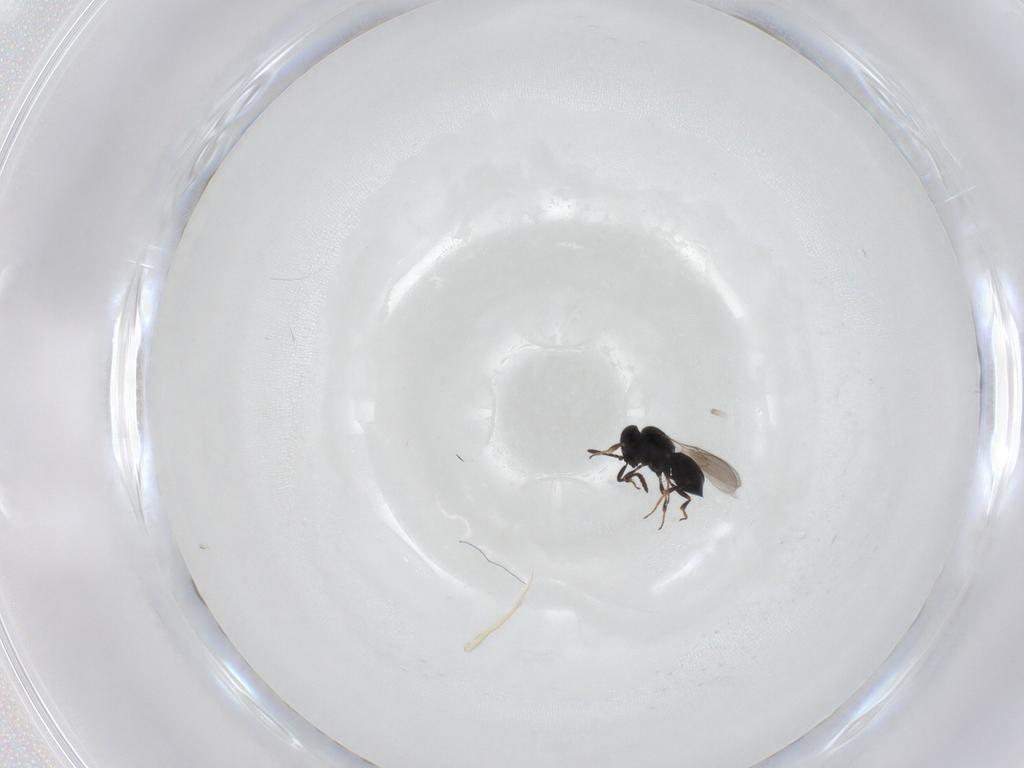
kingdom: Animalia
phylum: Arthropoda
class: Insecta
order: Hymenoptera
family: Scelionidae
